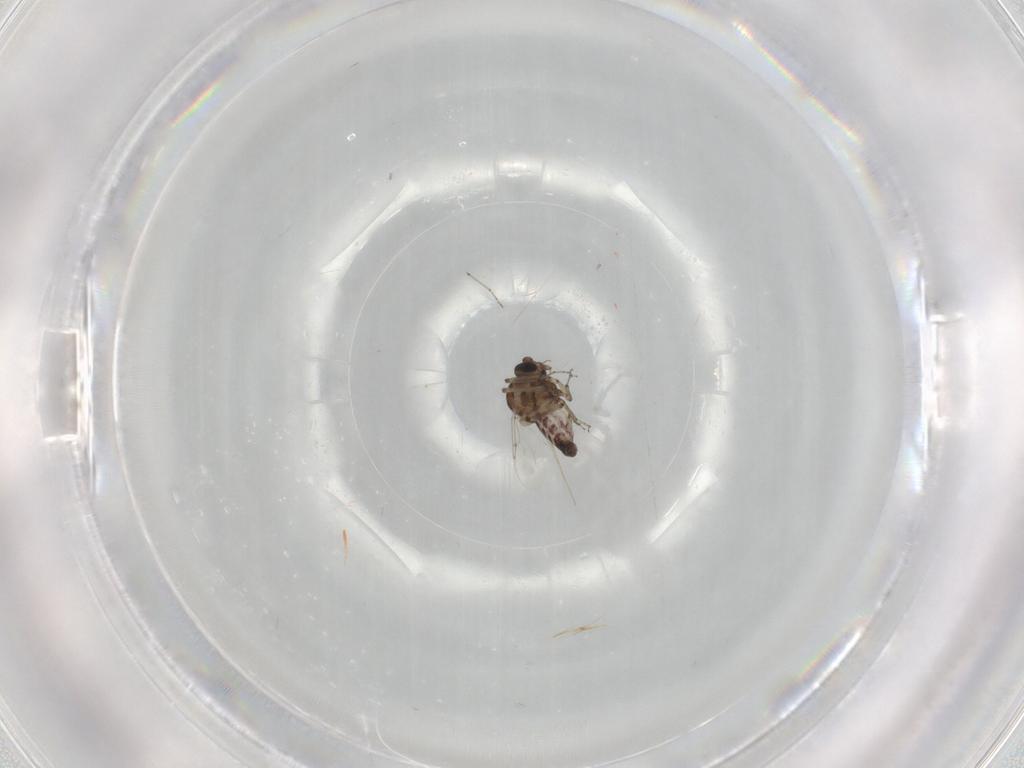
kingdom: Animalia
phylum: Arthropoda
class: Insecta
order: Diptera
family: Ceratopogonidae
